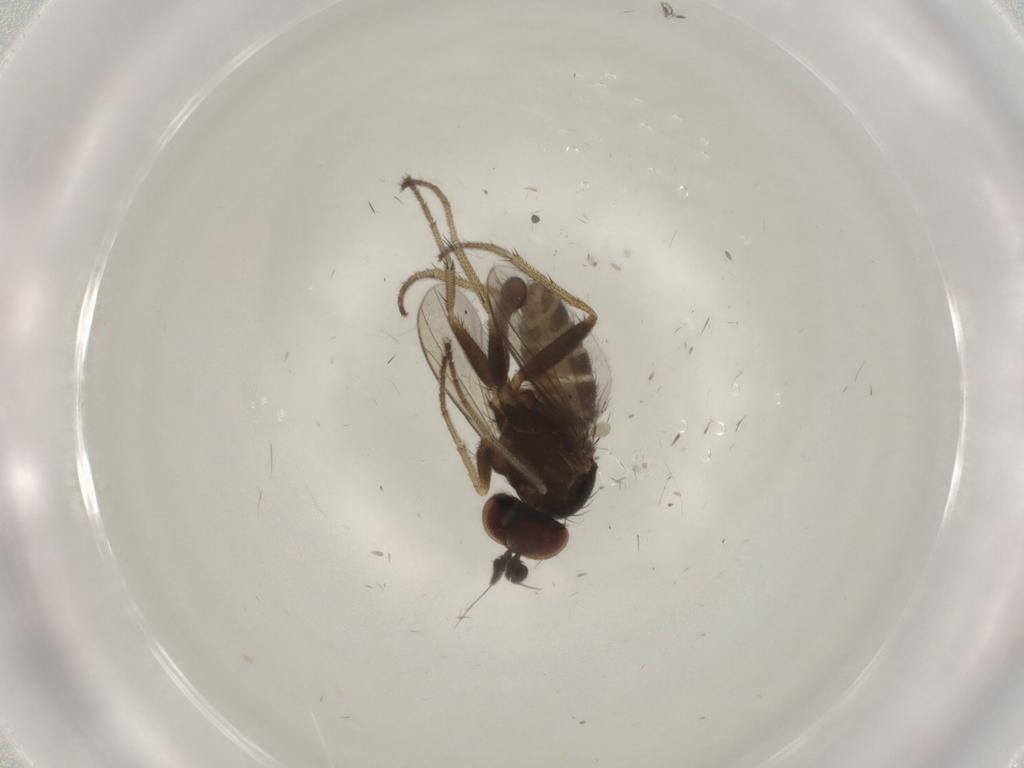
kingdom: Animalia
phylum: Arthropoda
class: Insecta
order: Diptera
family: Dolichopodidae
